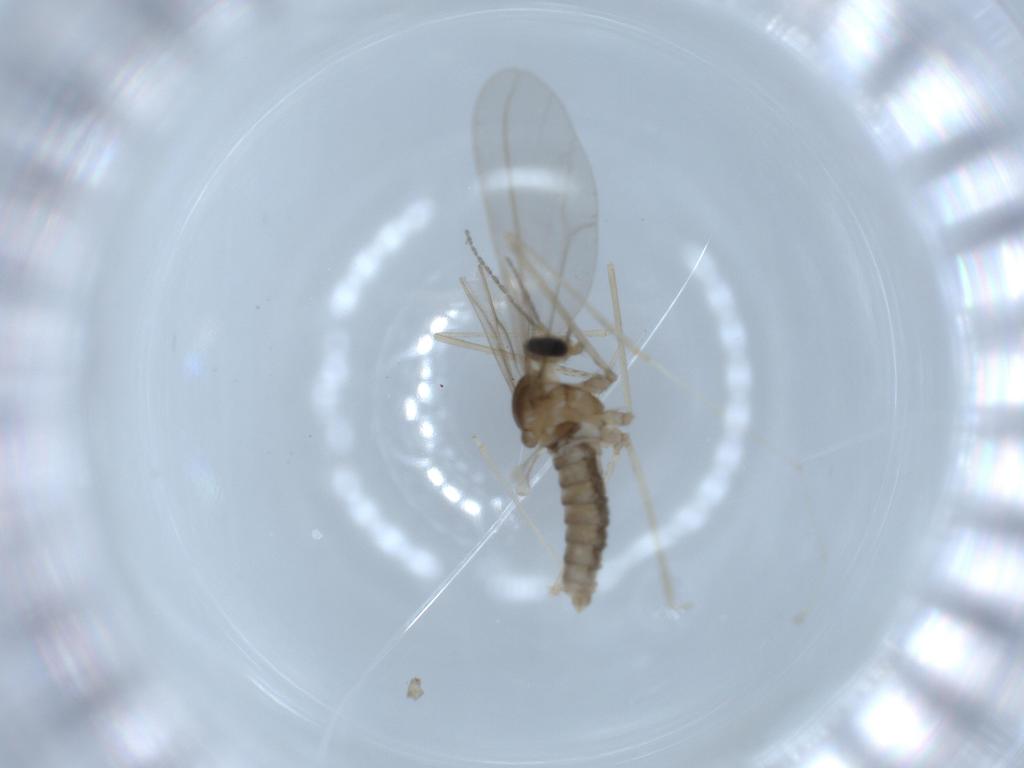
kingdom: Animalia
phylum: Arthropoda
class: Insecta
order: Diptera
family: Cecidomyiidae
